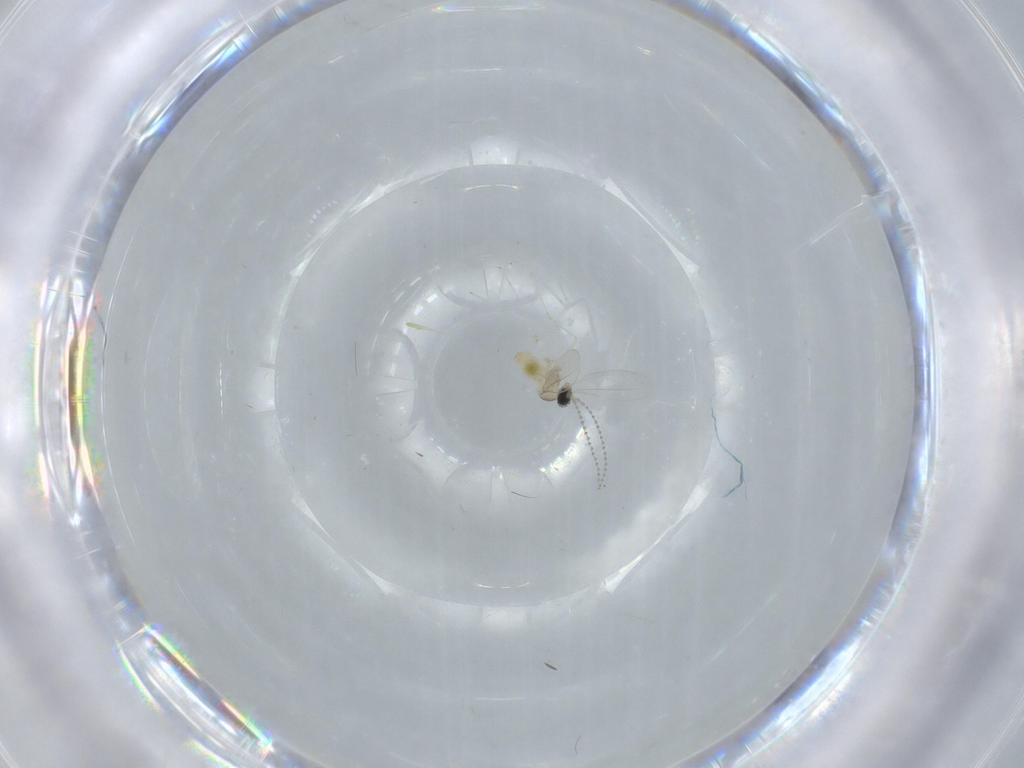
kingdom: Animalia
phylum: Arthropoda
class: Insecta
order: Diptera
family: Cecidomyiidae
